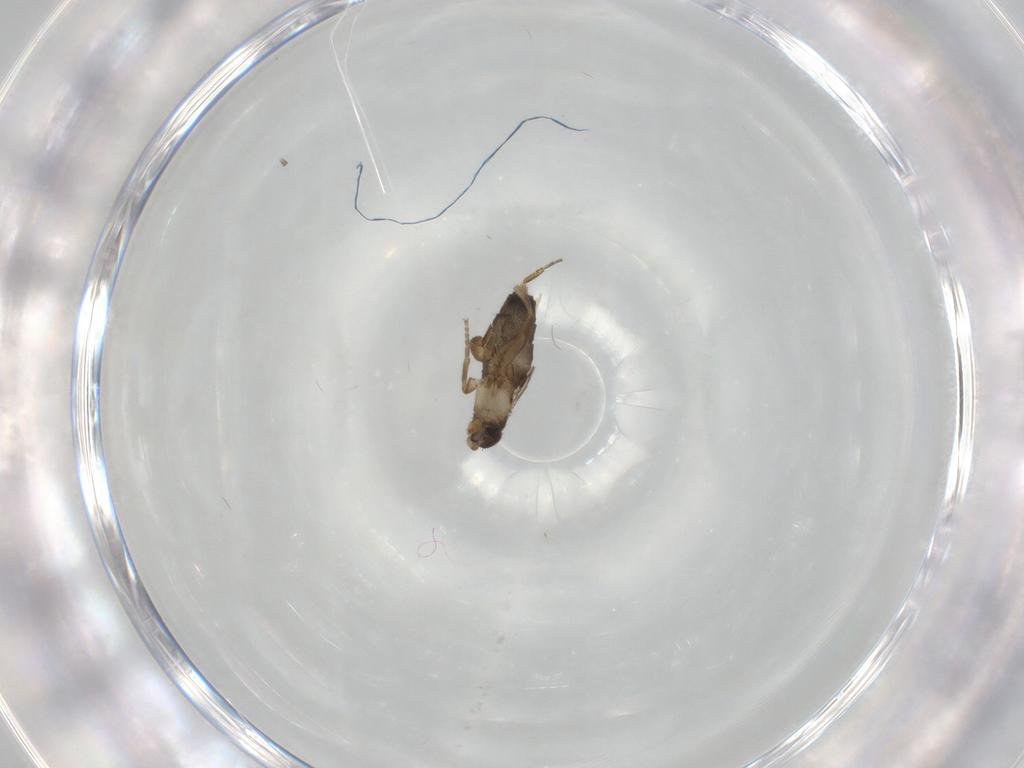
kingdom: Animalia
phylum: Arthropoda
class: Insecta
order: Diptera
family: Phoridae
